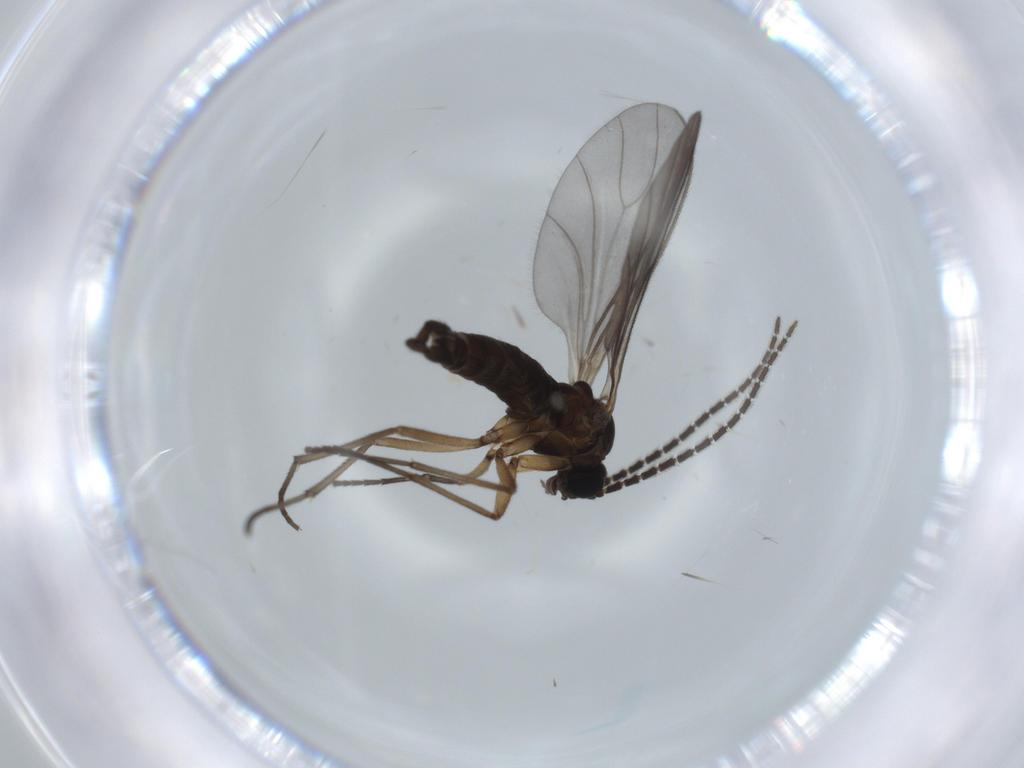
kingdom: Animalia
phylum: Arthropoda
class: Insecta
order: Diptera
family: Sciaridae
